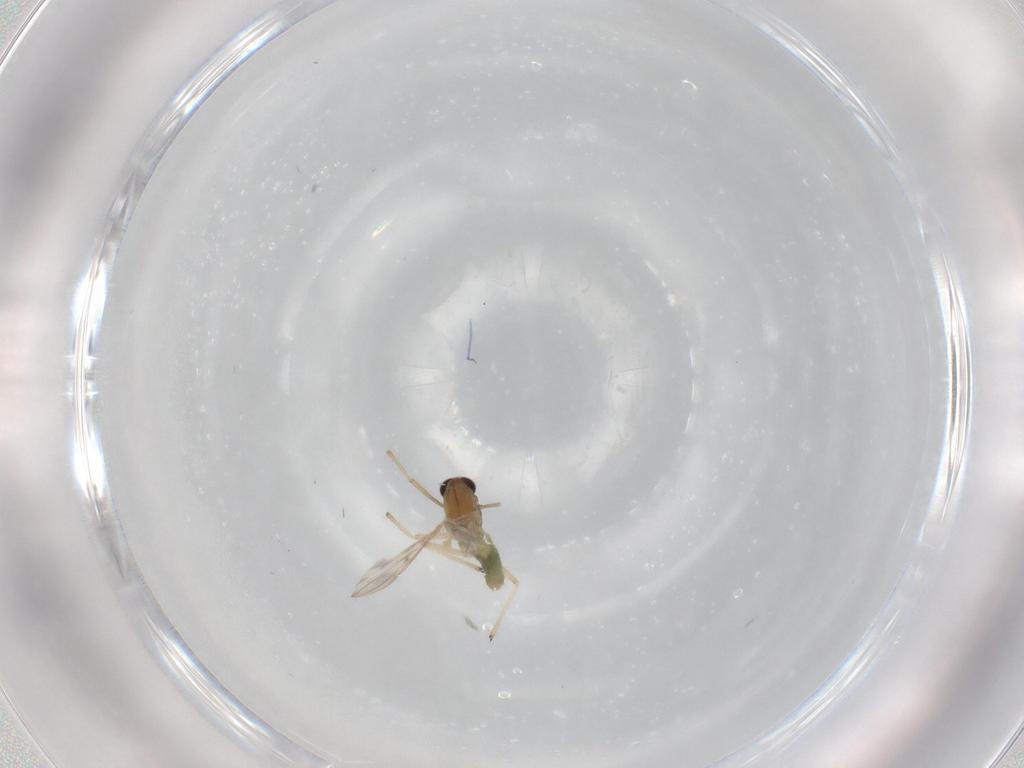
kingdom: Animalia
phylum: Arthropoda
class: Insecta
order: Diptera
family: Chironomidae
